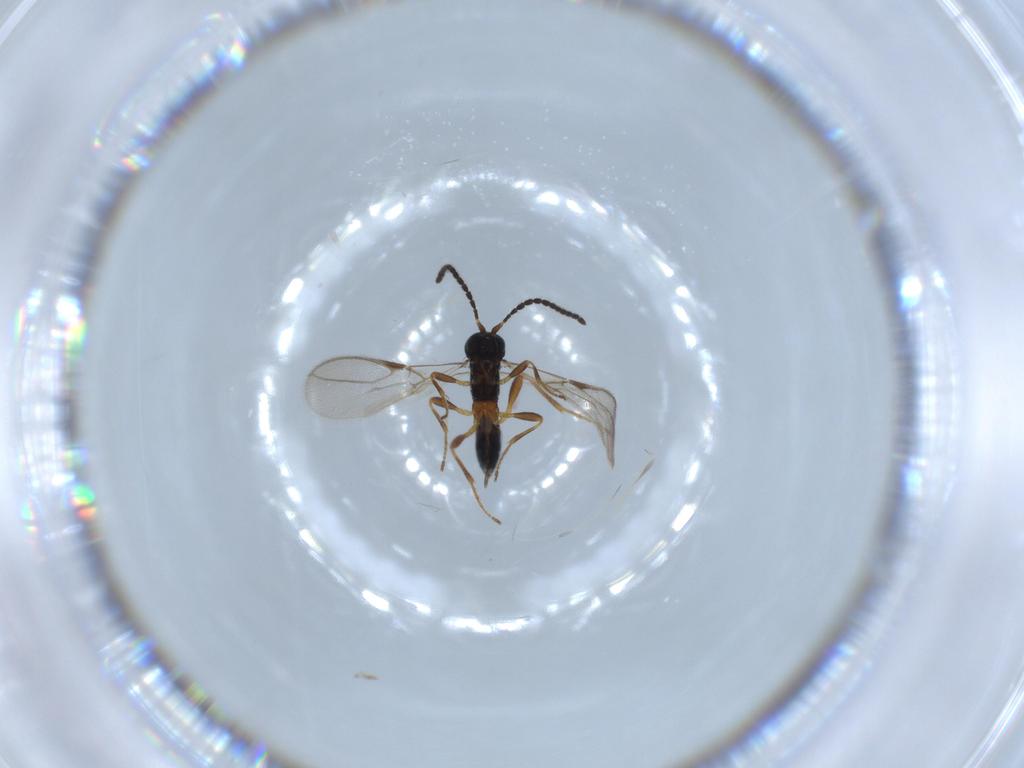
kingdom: Animalia
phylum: Arthropoda
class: Insecta
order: Hymenoptera
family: Braconidae
